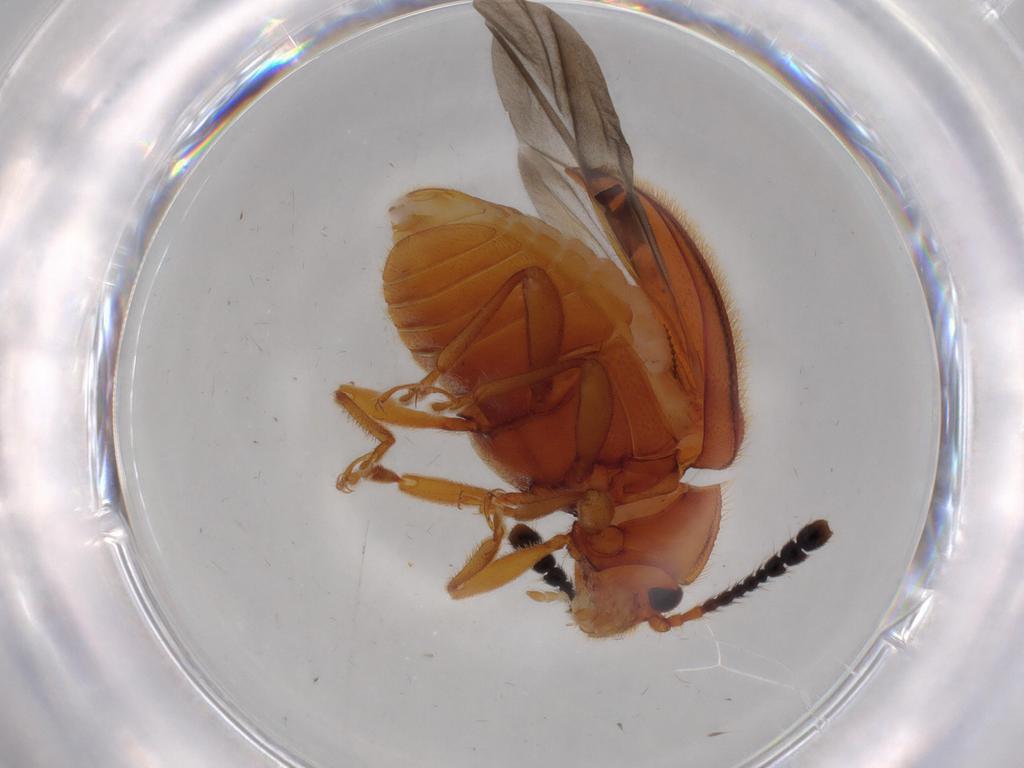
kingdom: Animalia
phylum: Arthropoda
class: Insecta
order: Coleoptera
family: Endomychidae
